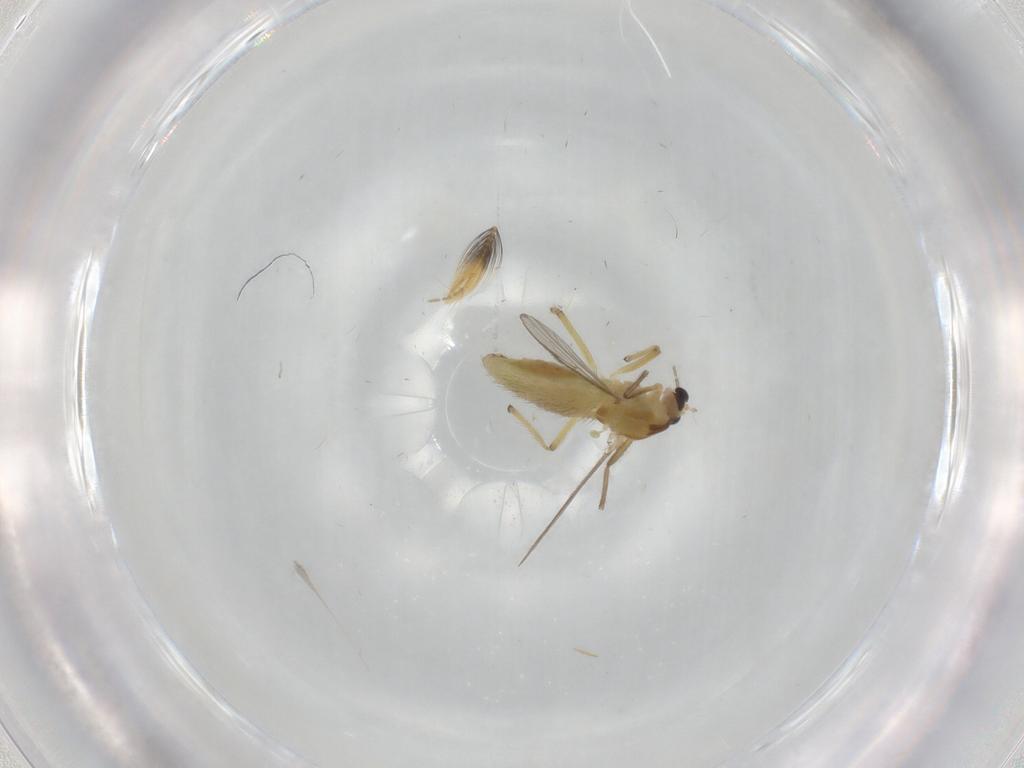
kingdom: Animalia
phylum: Arthropoda
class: Insecta
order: Diptera
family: Chironomidae
